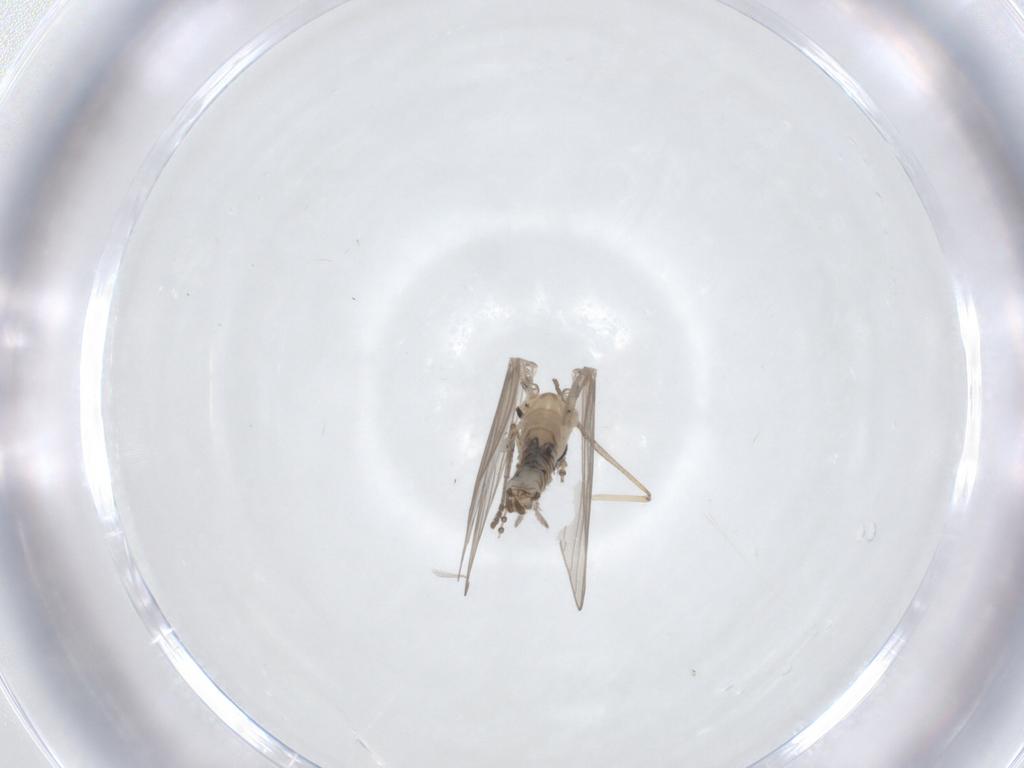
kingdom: Animalia
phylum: Arthropoda
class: Insecta
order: Diptera
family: Psychodidae
